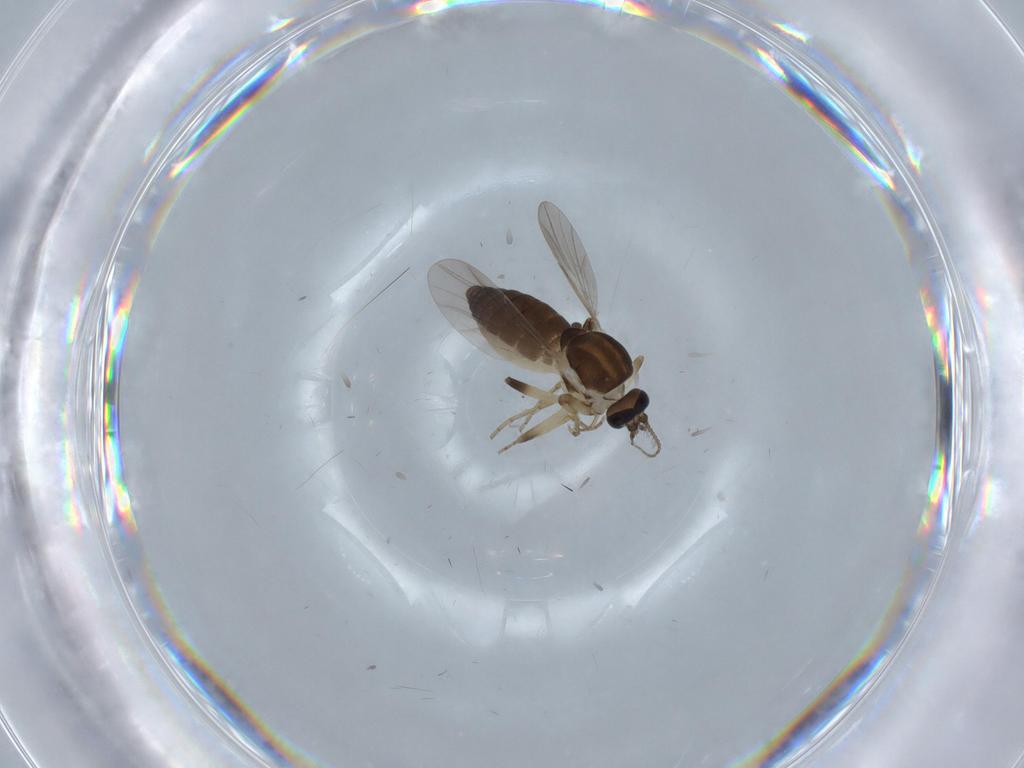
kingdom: Animalia
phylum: Arthropoda
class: Insecta
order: Diptera
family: Ceratopogonidae
